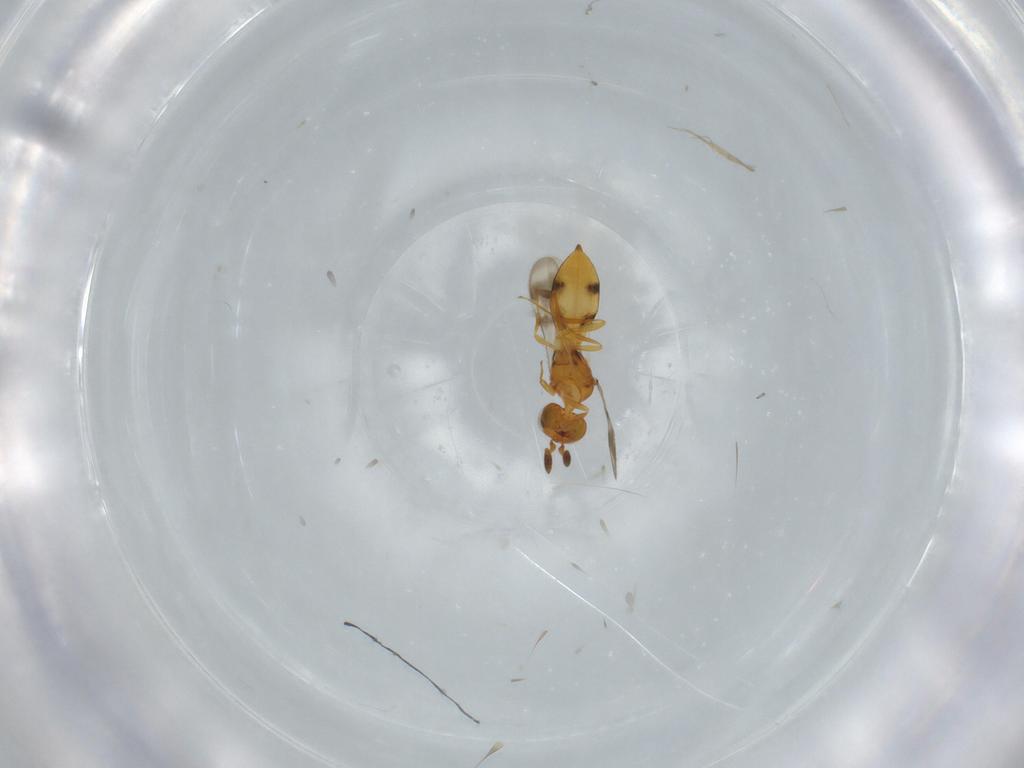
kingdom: Animalia
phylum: Arthropoda
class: Insecta
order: Hymenoptera
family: Scelionidae
